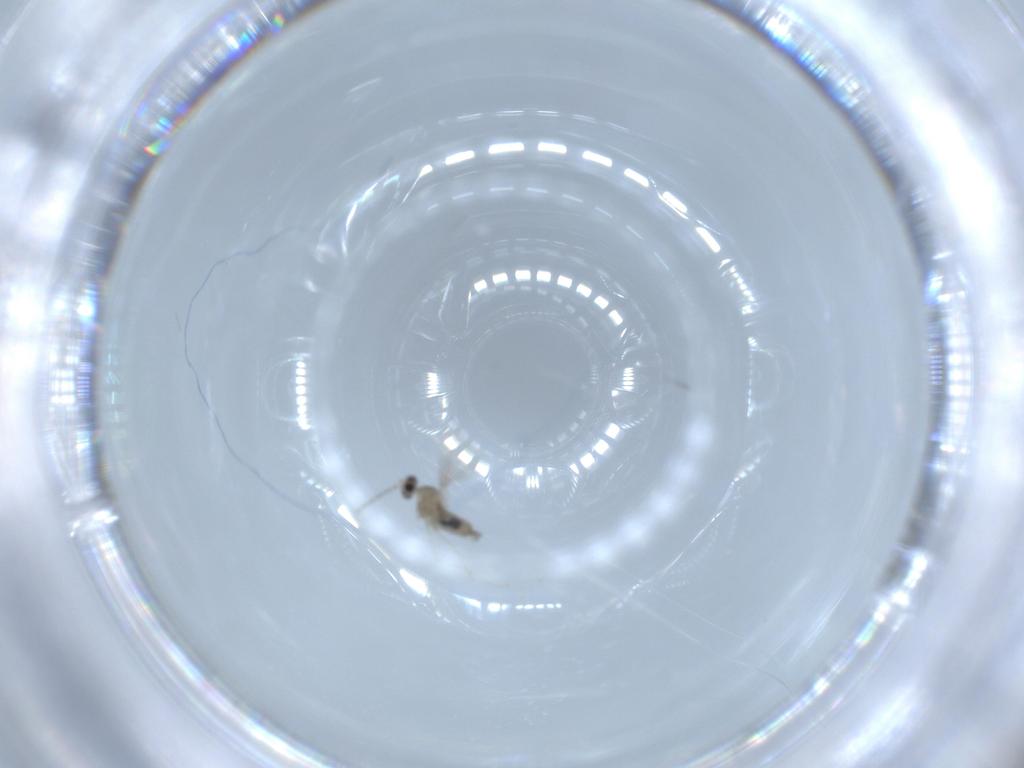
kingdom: Animalia
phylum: Arthropoda
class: Insecta
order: Diptera
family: Cecidomyiidae
